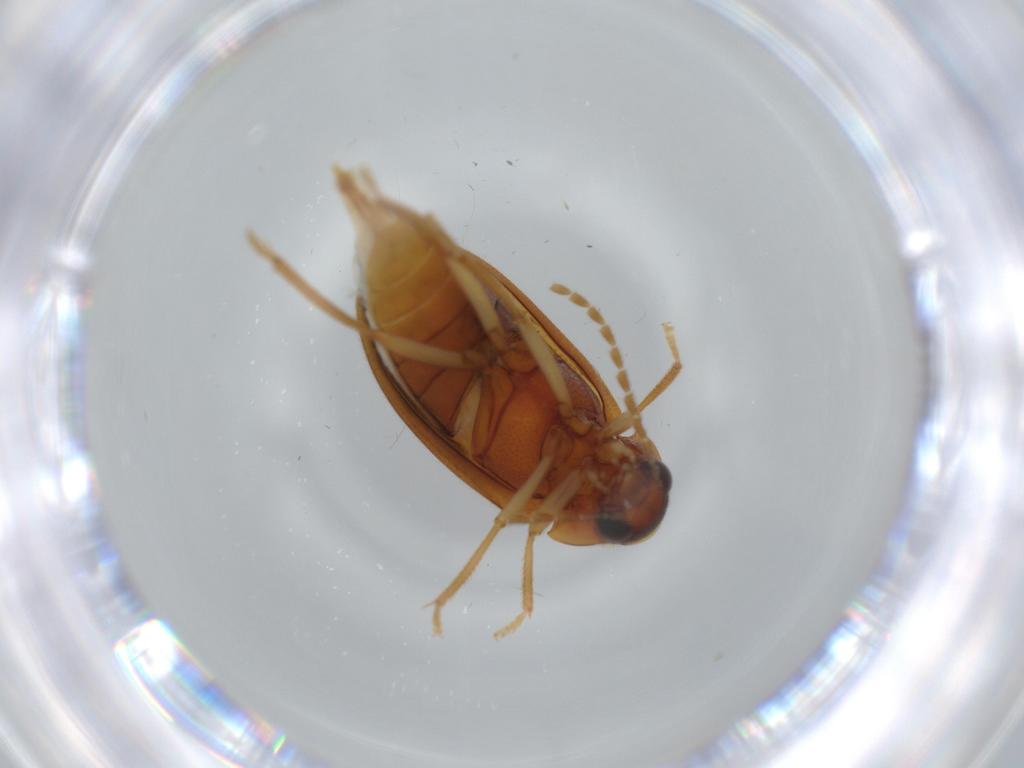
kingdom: Animalia
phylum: Arthropoda
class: Insecta
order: Coleoptera
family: Ptilodactylidae
